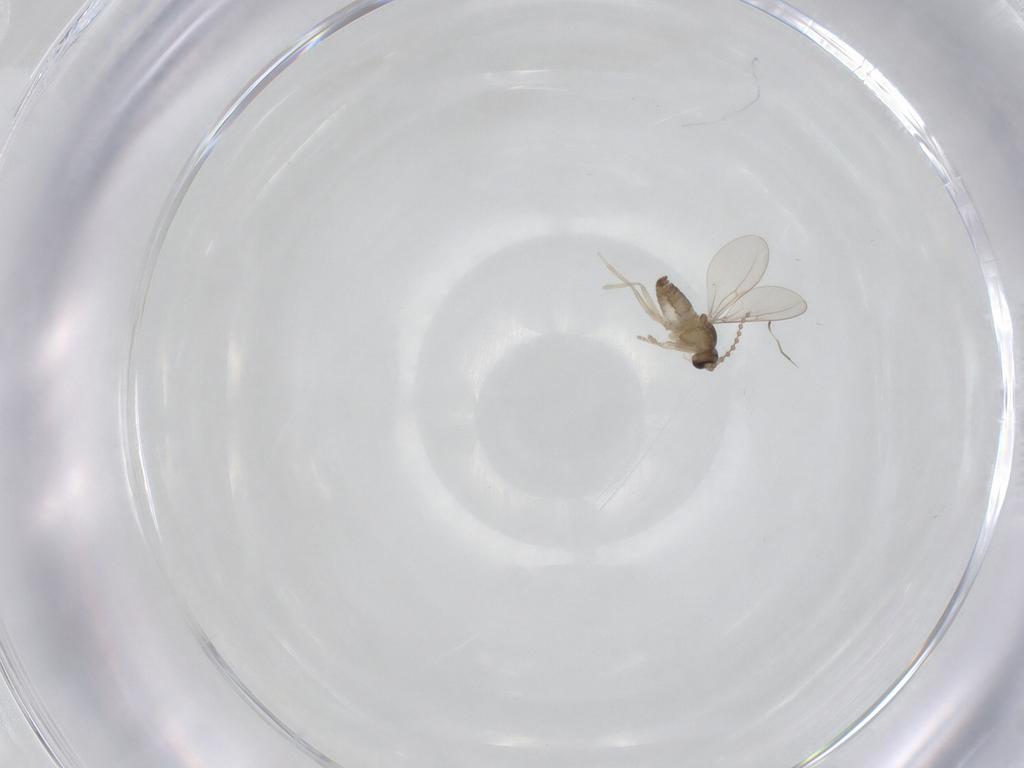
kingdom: Animalia
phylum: Arthropoda
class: Insecta
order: Diptera
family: Cecidomyiidae
